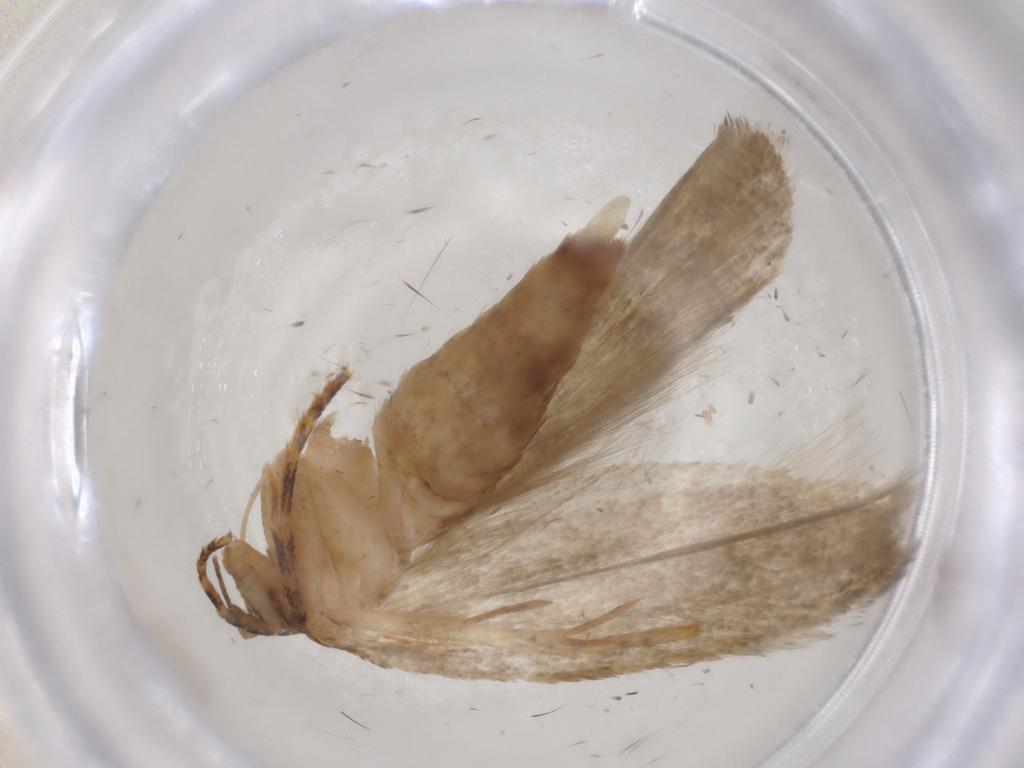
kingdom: Animalia
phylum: Arthropoda
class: Insecta
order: Lepidoptera
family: Gelechiidae
